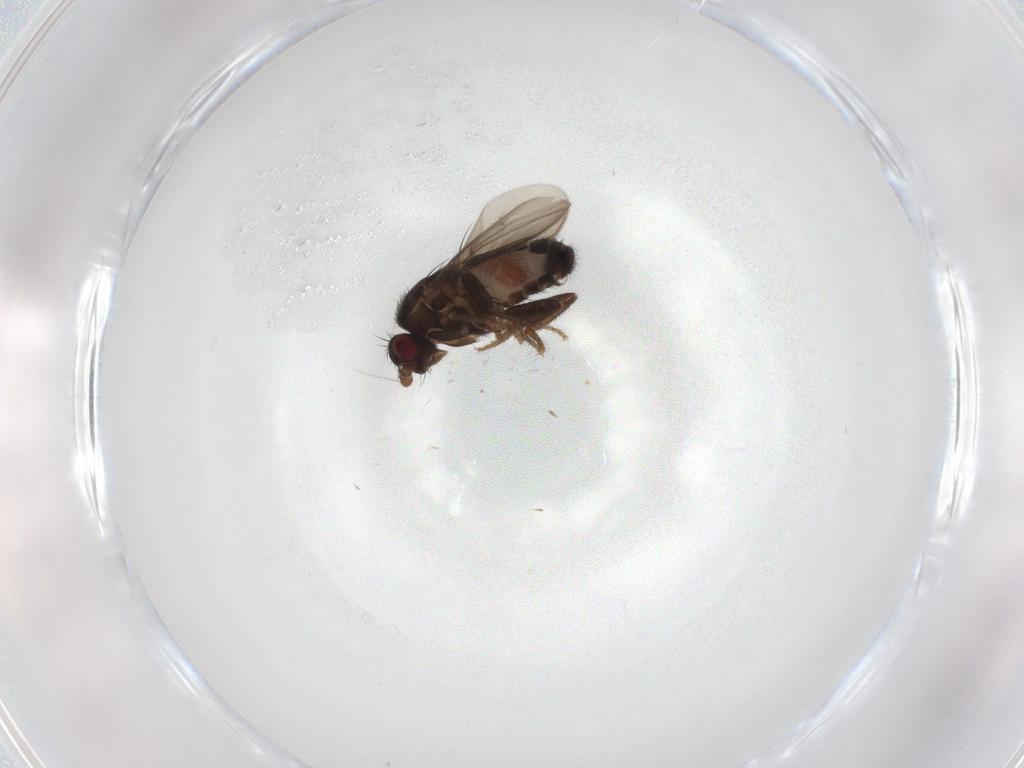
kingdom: Animalia
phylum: Arthropoda
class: Insecta
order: Diptera
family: Sphaeroceridae
